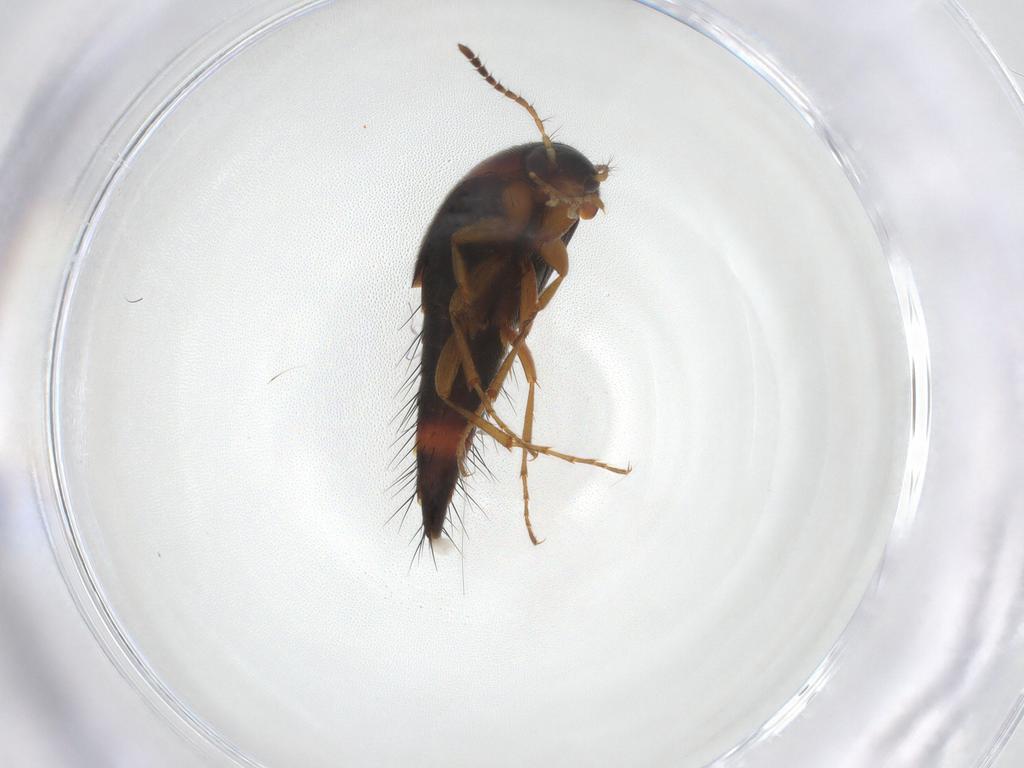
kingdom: Animalia
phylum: Arthropoda
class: Insecta
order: Coleoptera
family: Staphylinidae
